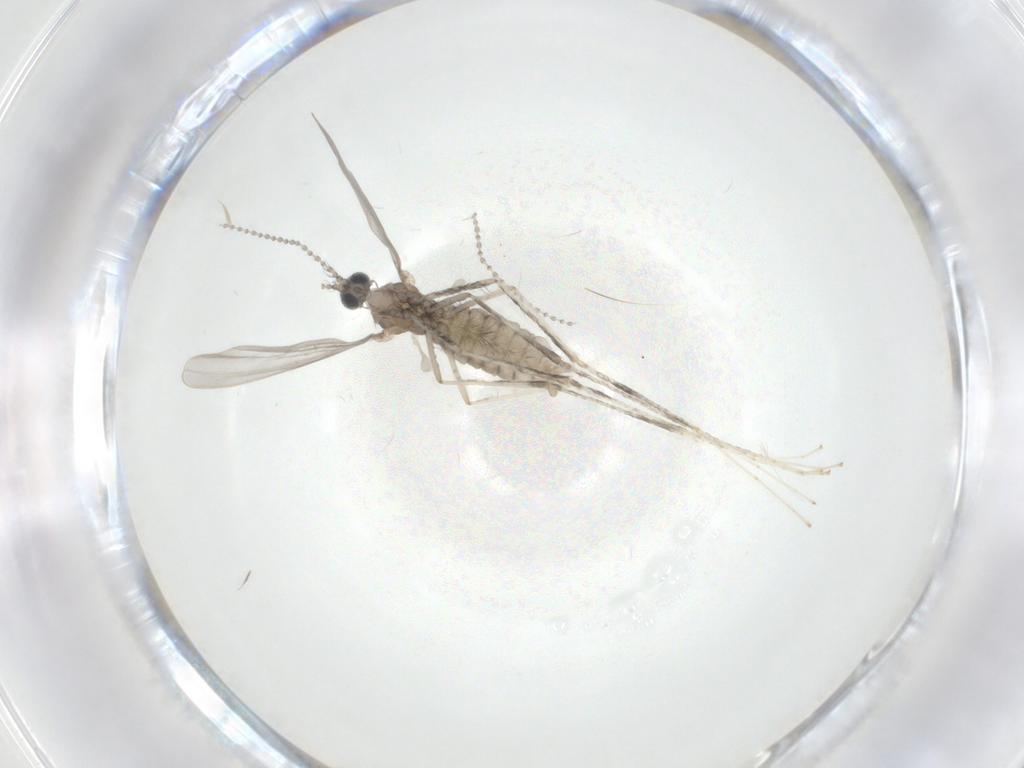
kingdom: Animalia
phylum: Arthropoda
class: Insecta
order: Diptera
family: Cecidomyiidae
